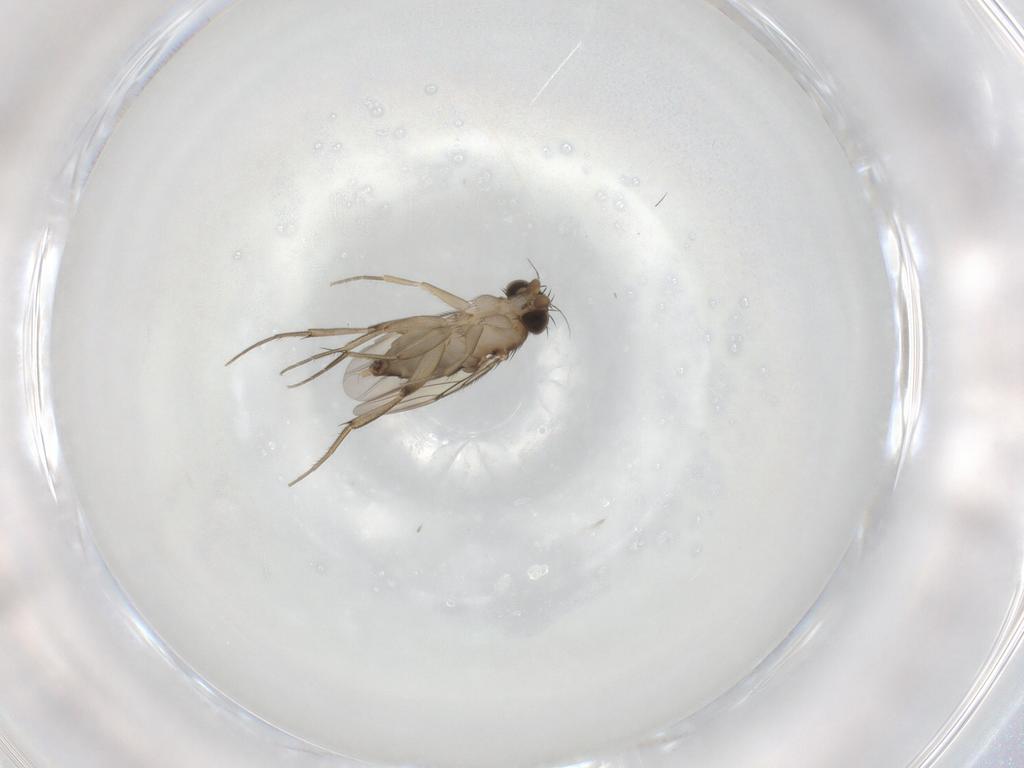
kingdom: Animalia
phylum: Arthropoda
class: Insecta
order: Diptera
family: Phoridae
